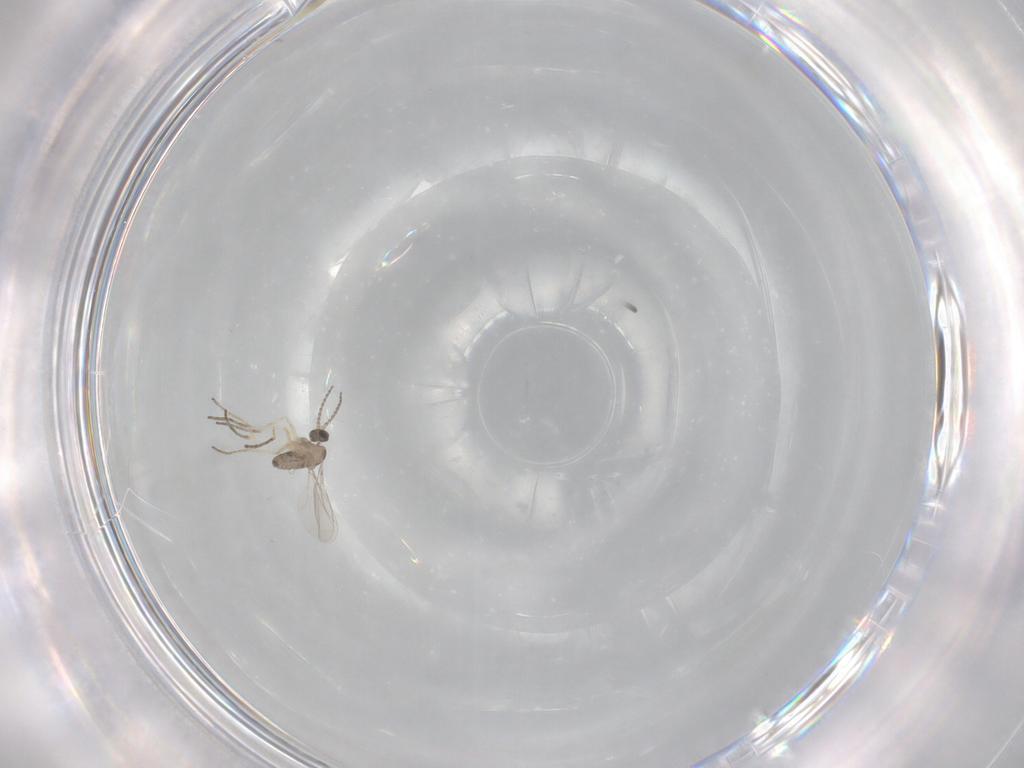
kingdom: Animalia
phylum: Arthropoda
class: Insecta
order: Diptera
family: Cecidomyiidae
